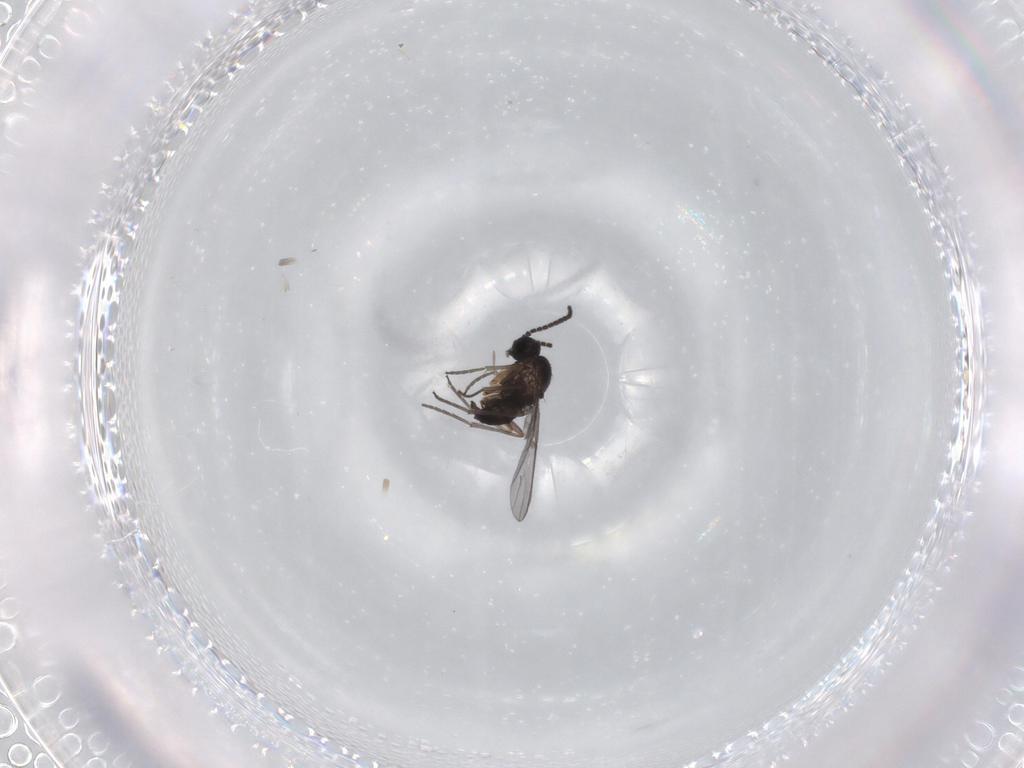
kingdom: Animalia
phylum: Arthropoda
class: Insecta
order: Diptera
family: Sciaridae
